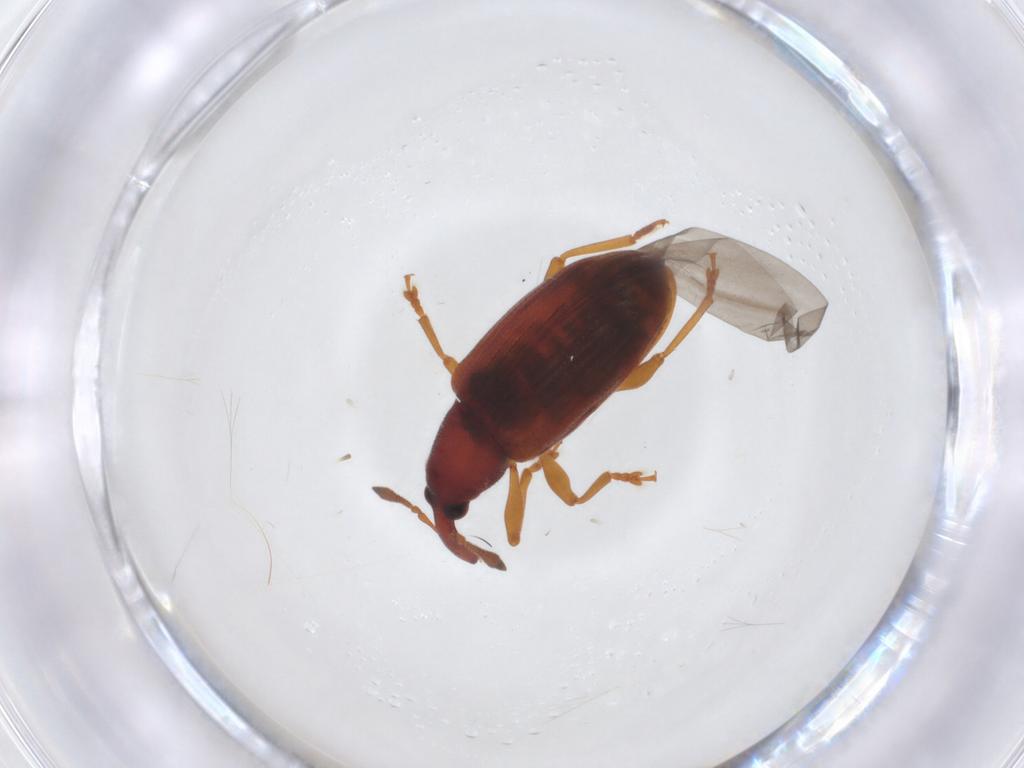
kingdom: Animalia
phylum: Arthropoda
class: Insecta
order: Coleoptera
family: Curculionidae
